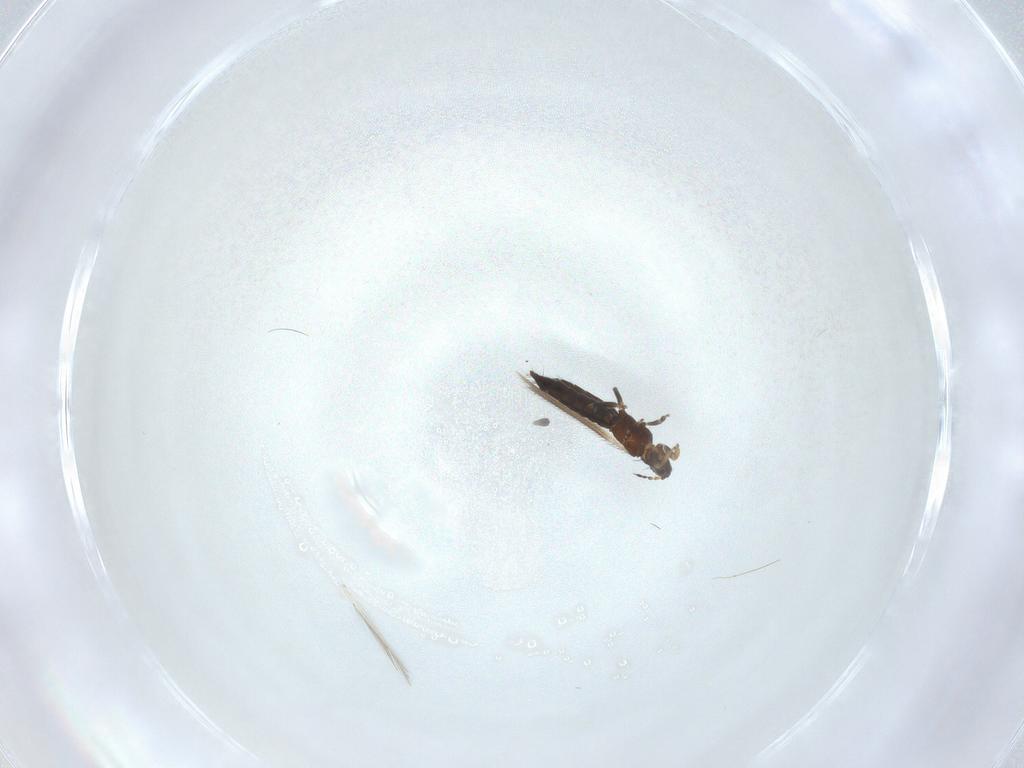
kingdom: Animalia
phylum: Arthropoda
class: Insecta
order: Thysanoptera
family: Thripidae
